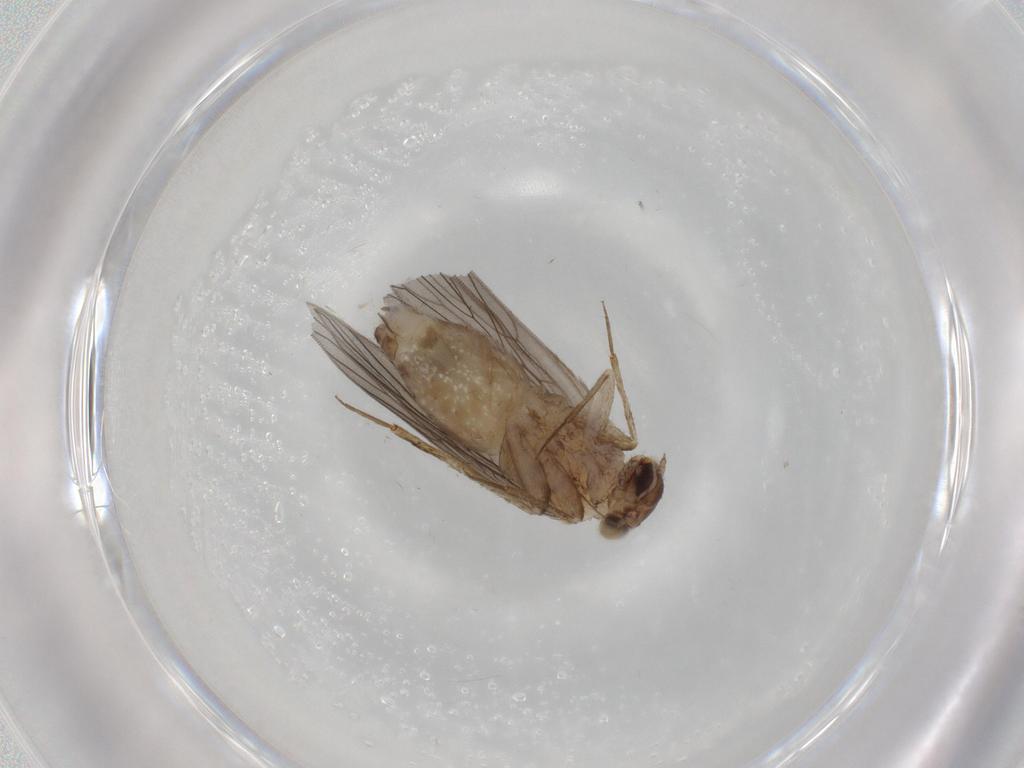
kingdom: Animalia
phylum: Arthropoda
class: Insecta
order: Psocodea
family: Lepidopsocidae
